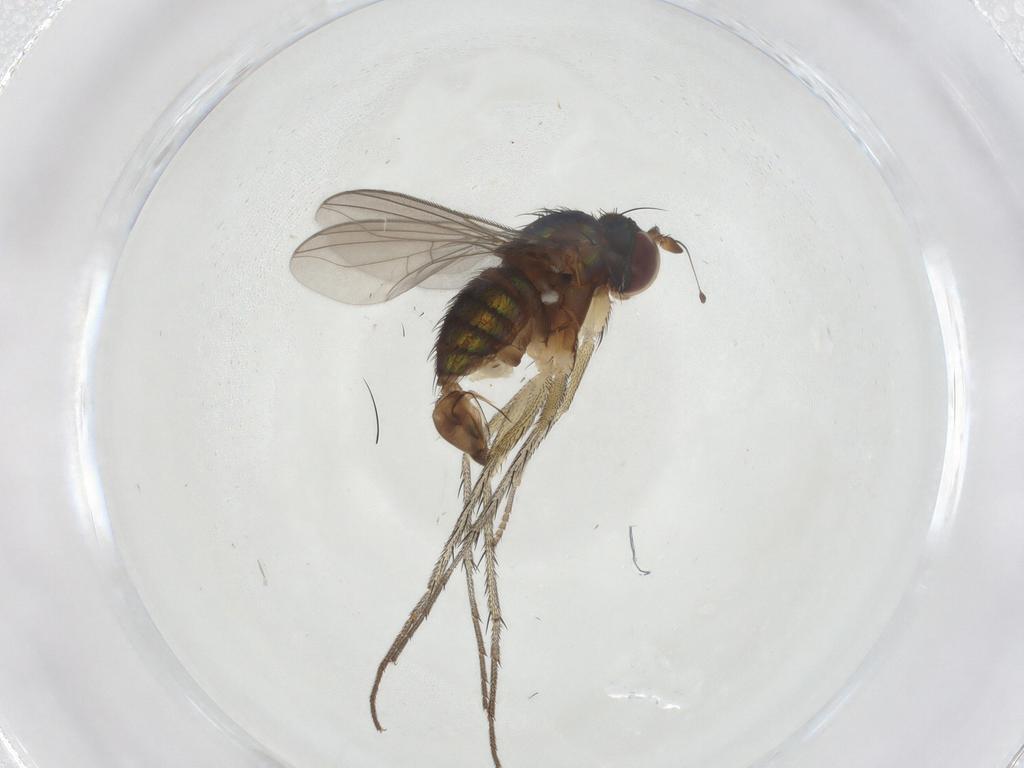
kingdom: Animalia
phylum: Arthropoda
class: Insecta
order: Diptera
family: Dolichopodidae
